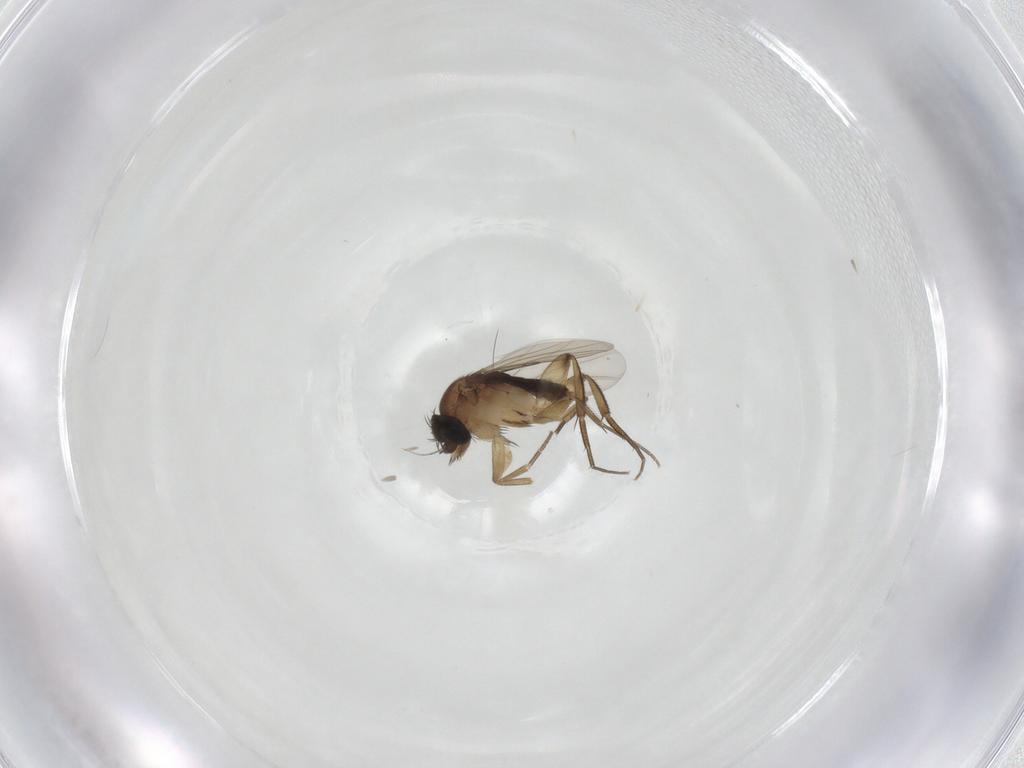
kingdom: Animalia
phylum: Arthropoda
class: Insecta
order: Diptera
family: Phoridae
